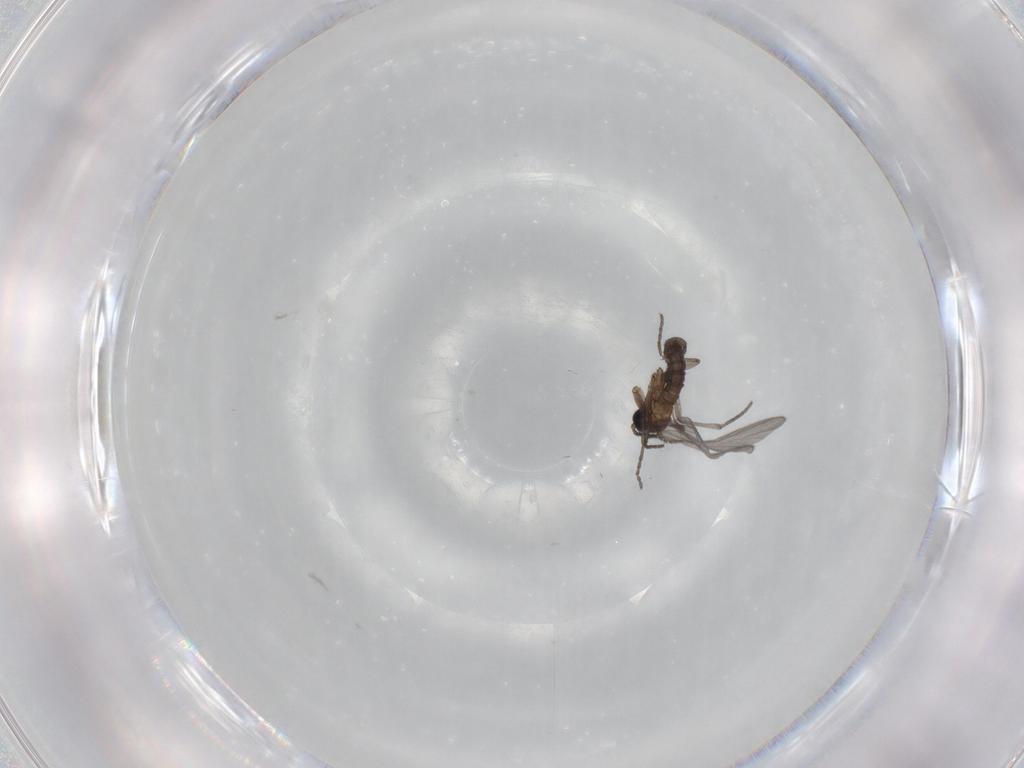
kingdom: Animalia
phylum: Arthropoda
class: Insecta
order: Diptera
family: Sciaridae
